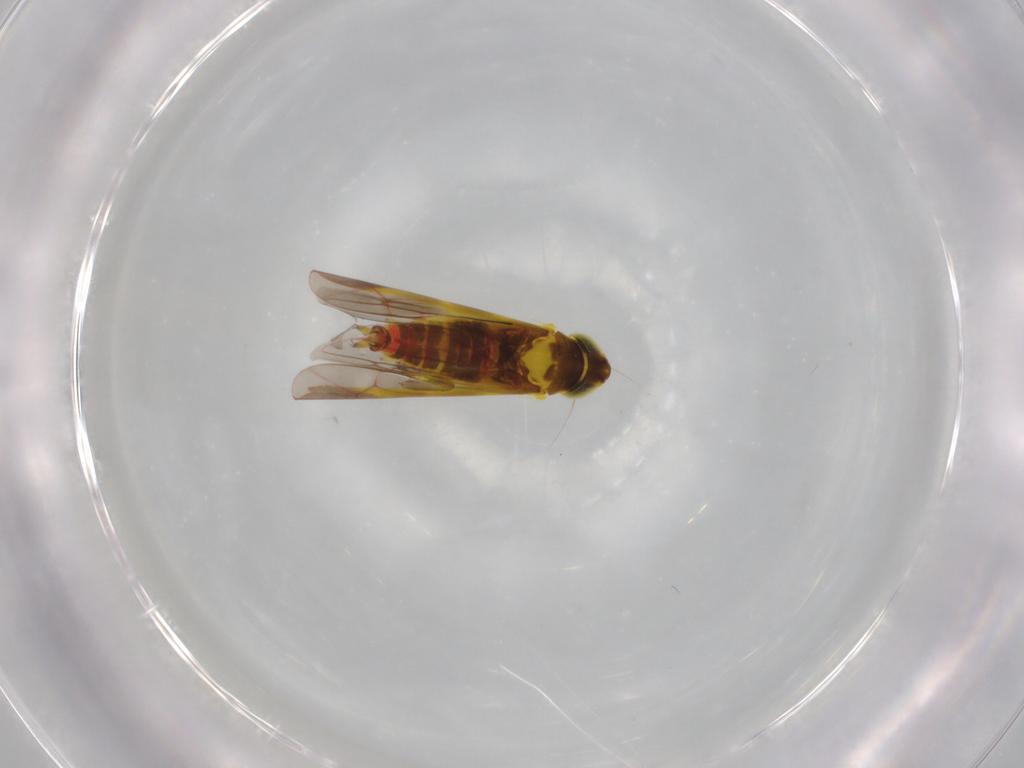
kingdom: Animalia
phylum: Arthropoda
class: Insecta
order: Hemiptera
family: Cicadellidae
